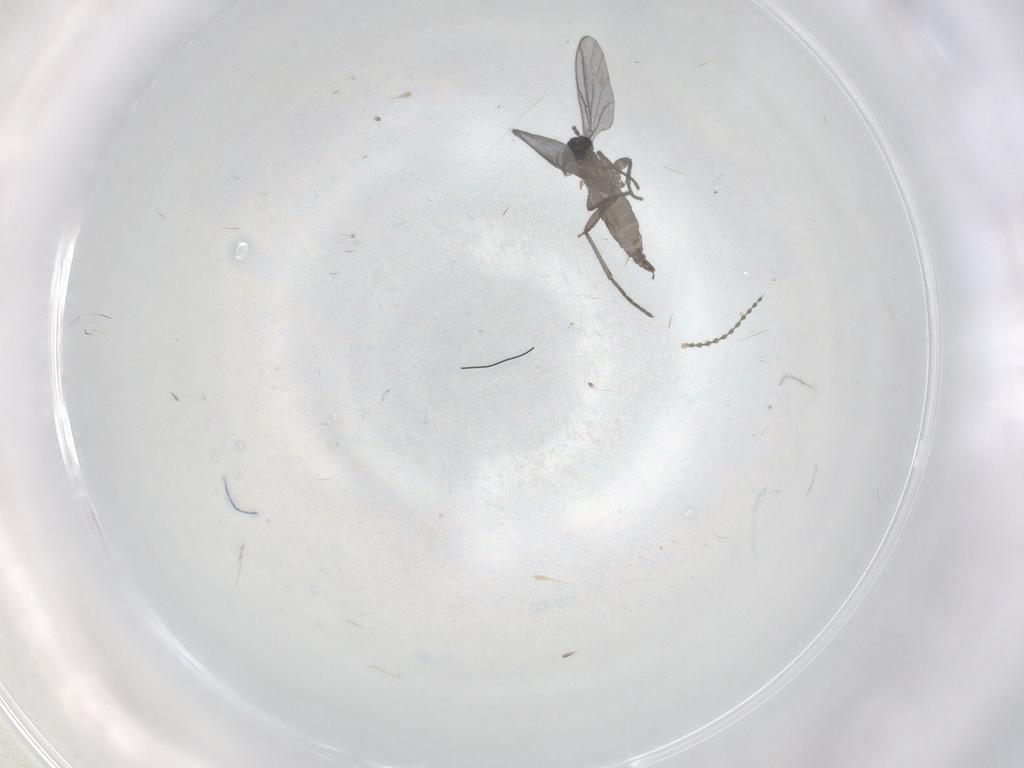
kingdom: Animalia
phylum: Arthropoda
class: Insecta
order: Diptera
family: Cecidomyiidae
